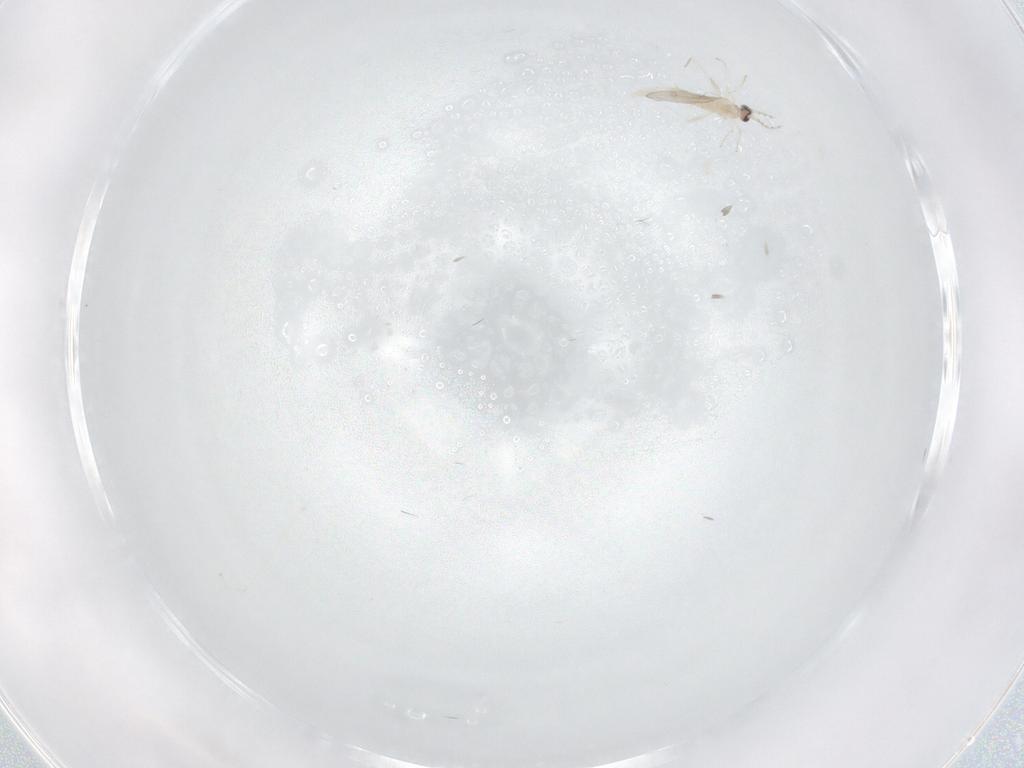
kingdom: Animalia
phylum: Arthropoda
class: Insecta
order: Diptera
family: Cecidomyiidae
